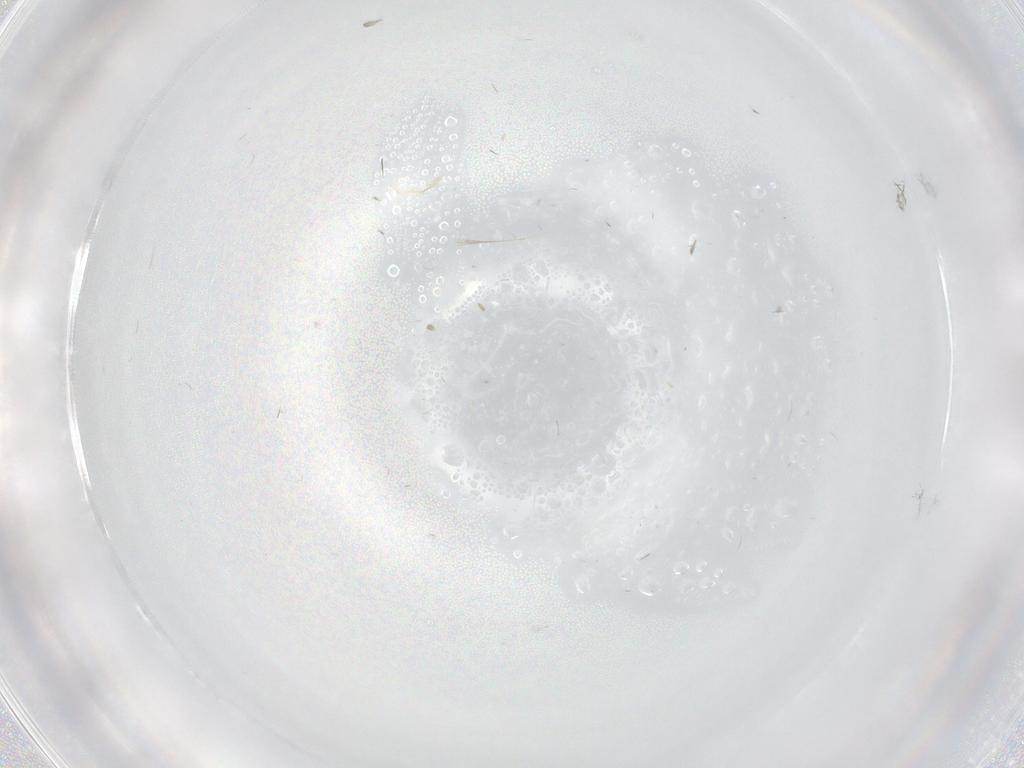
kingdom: Animalia
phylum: Arthropoda
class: Insecta
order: Diptera
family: Cecidomyiidae
